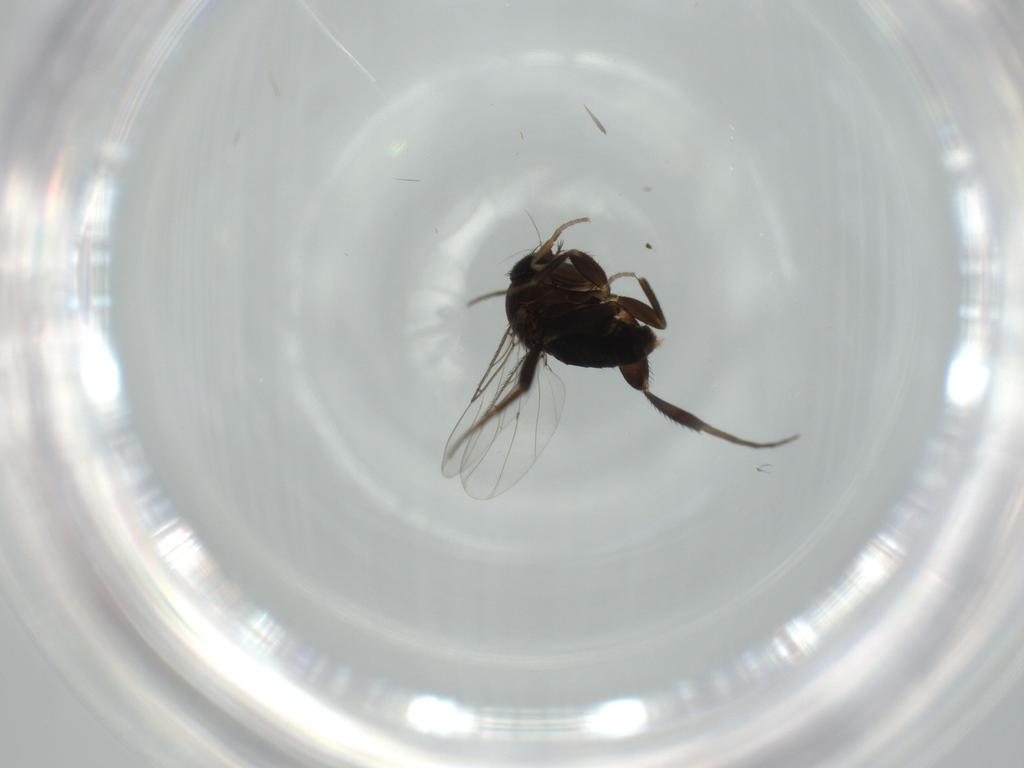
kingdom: Animalia
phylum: Arthropoda
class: Insecta
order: Diptera
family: Phoridae
